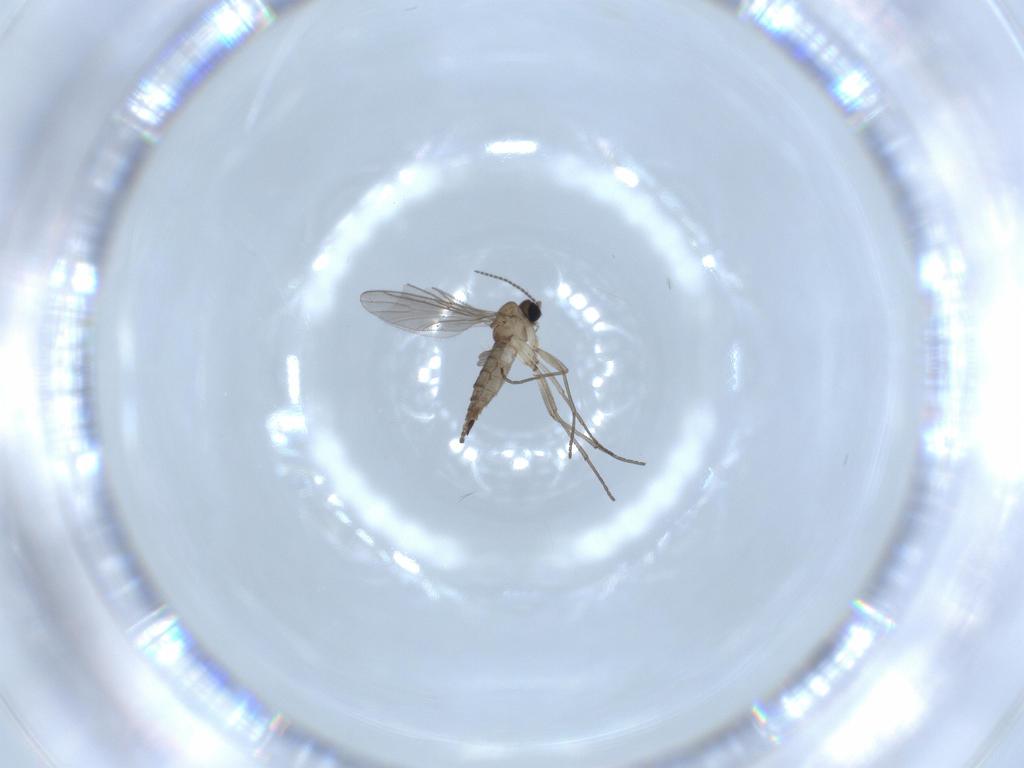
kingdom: Animalia
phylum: Arthropoda
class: Insecta
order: Diptera
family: Sciaridae
